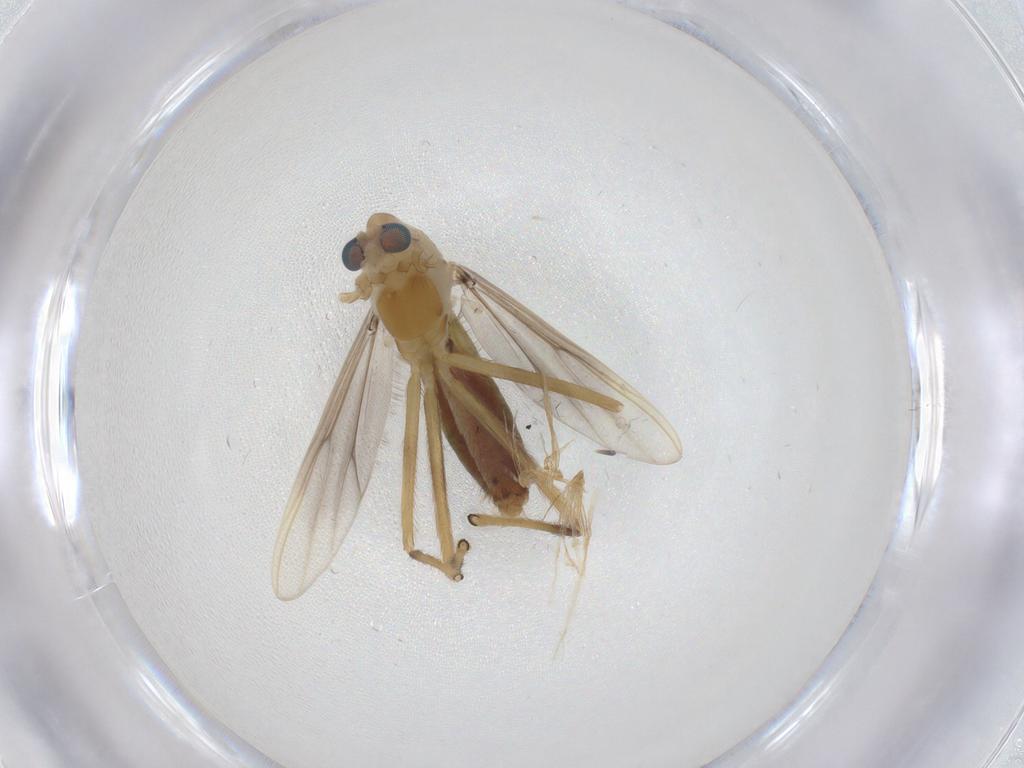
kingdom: Animalia
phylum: Arthropoda
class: Insecta
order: Diptera
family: Chironomidae
